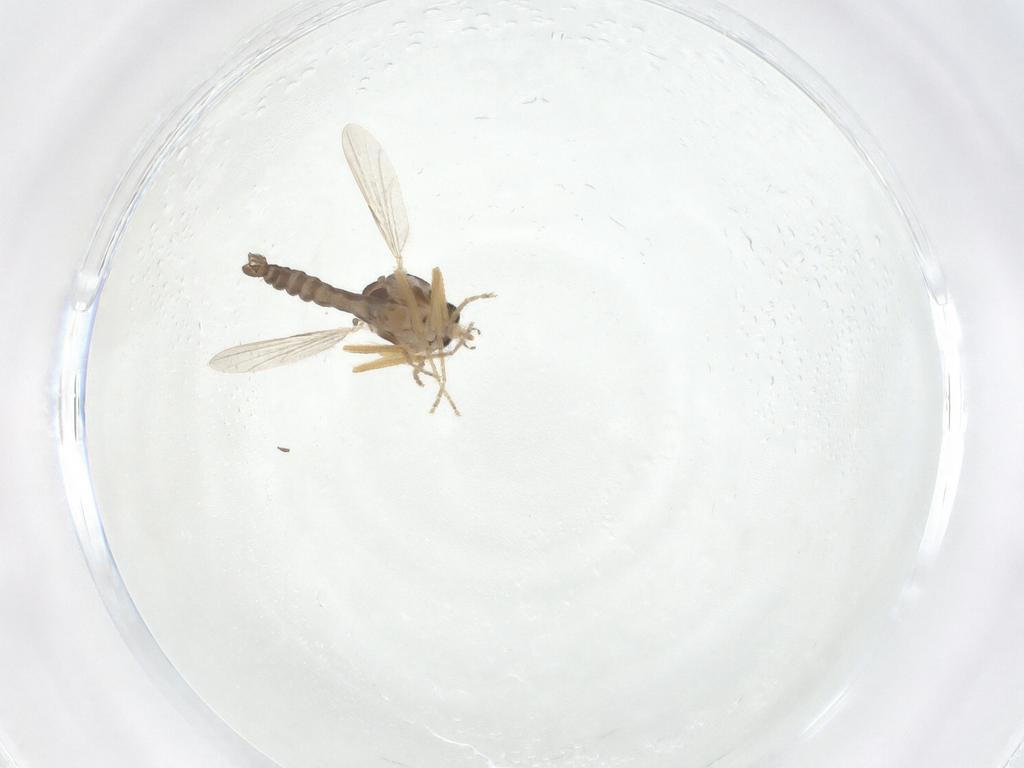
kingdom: Animalia
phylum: Arthropoda
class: Insecta
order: Diptera
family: Ceratopogonidae
